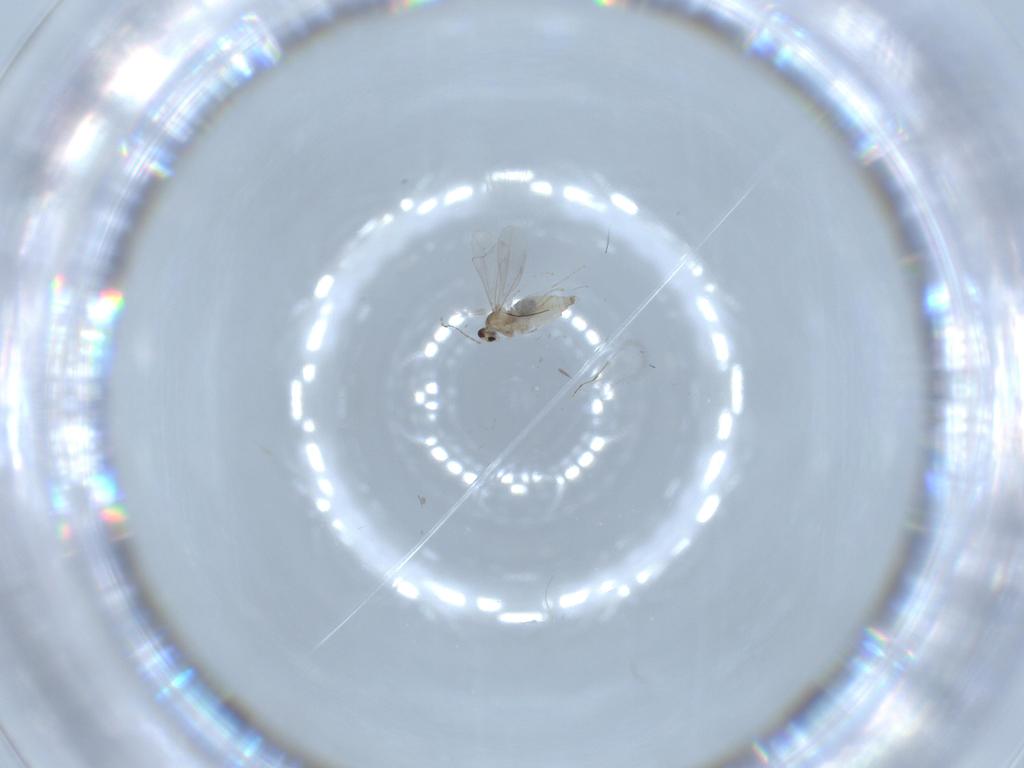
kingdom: Animalia
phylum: Arthropoda
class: Insecta
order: Diptera
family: Cecidomyiidae
